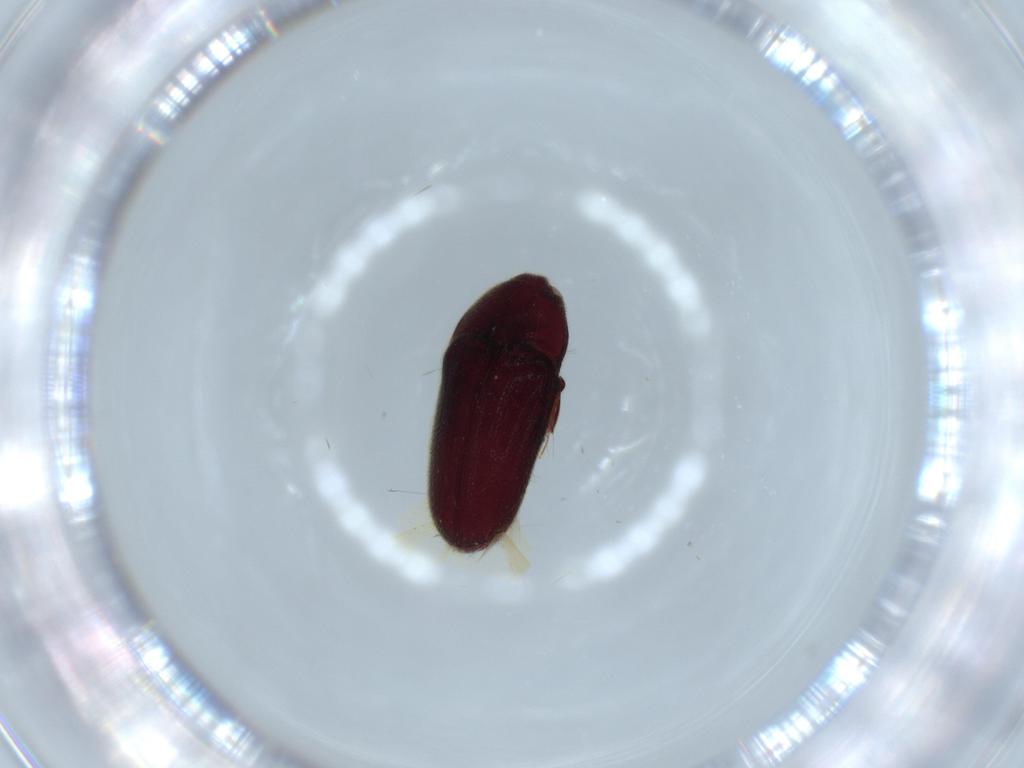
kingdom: Animalia
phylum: Arthropoda
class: Insecta
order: Coleoptera
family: Throscidae
